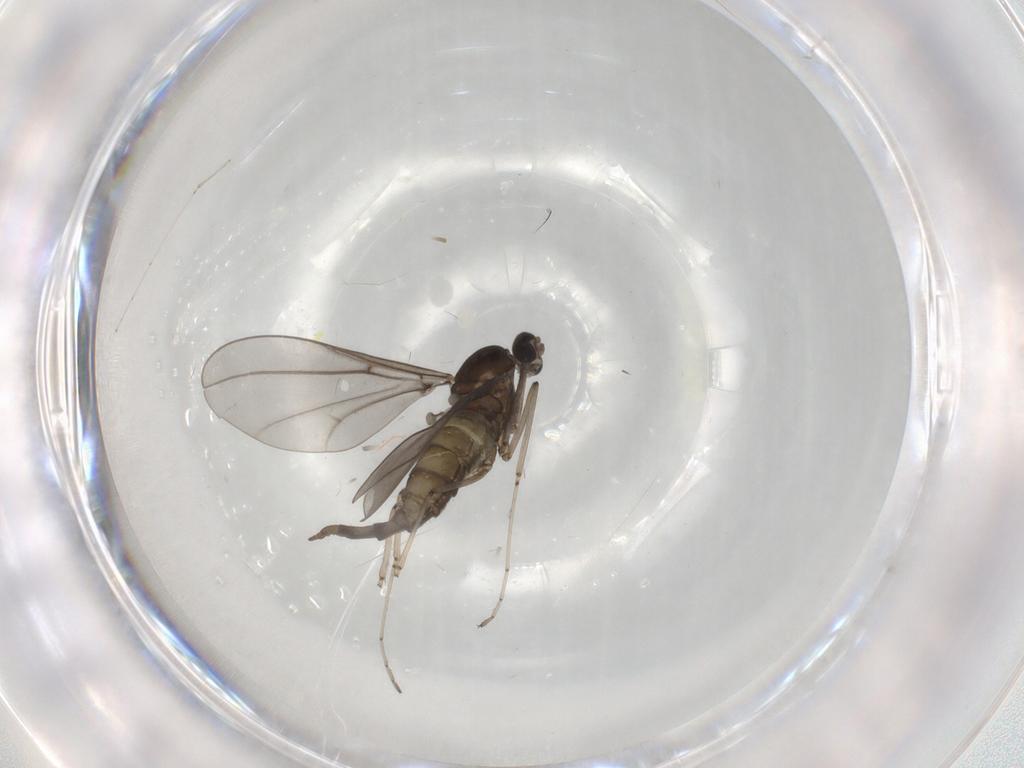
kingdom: Animalia
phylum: Arthropoda
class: Insecta
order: Diptera
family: Cecidomyiidae
